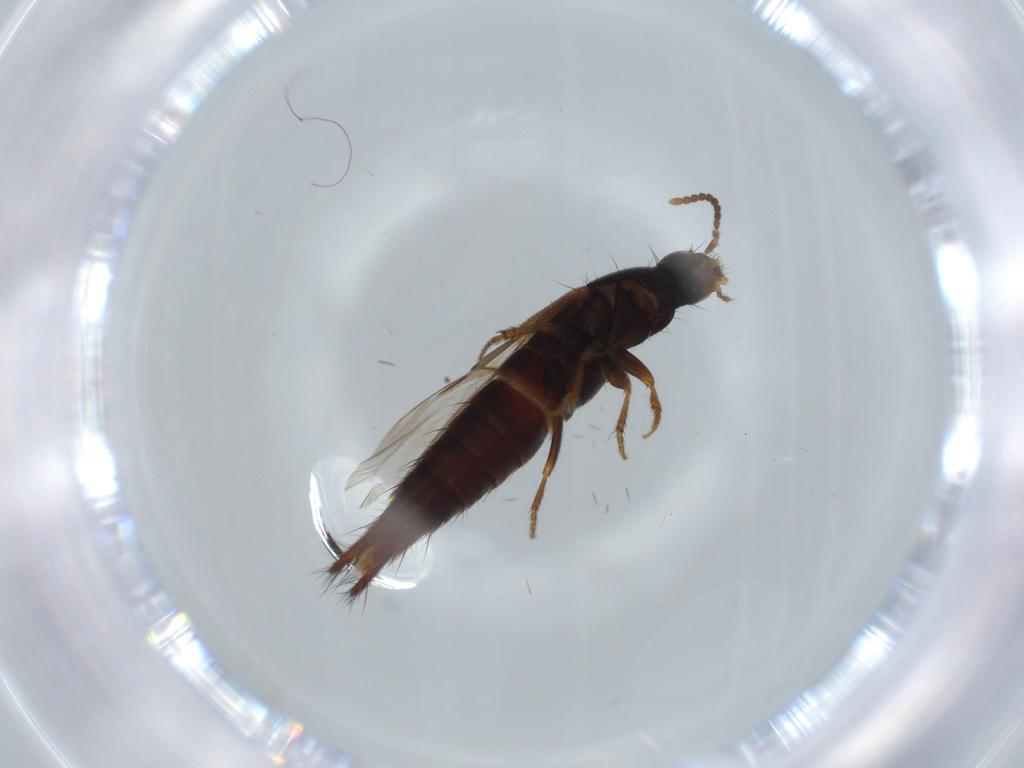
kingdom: Animalia
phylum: Arthropoda
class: Insecta
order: Coleoptera
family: Staphylinidae
